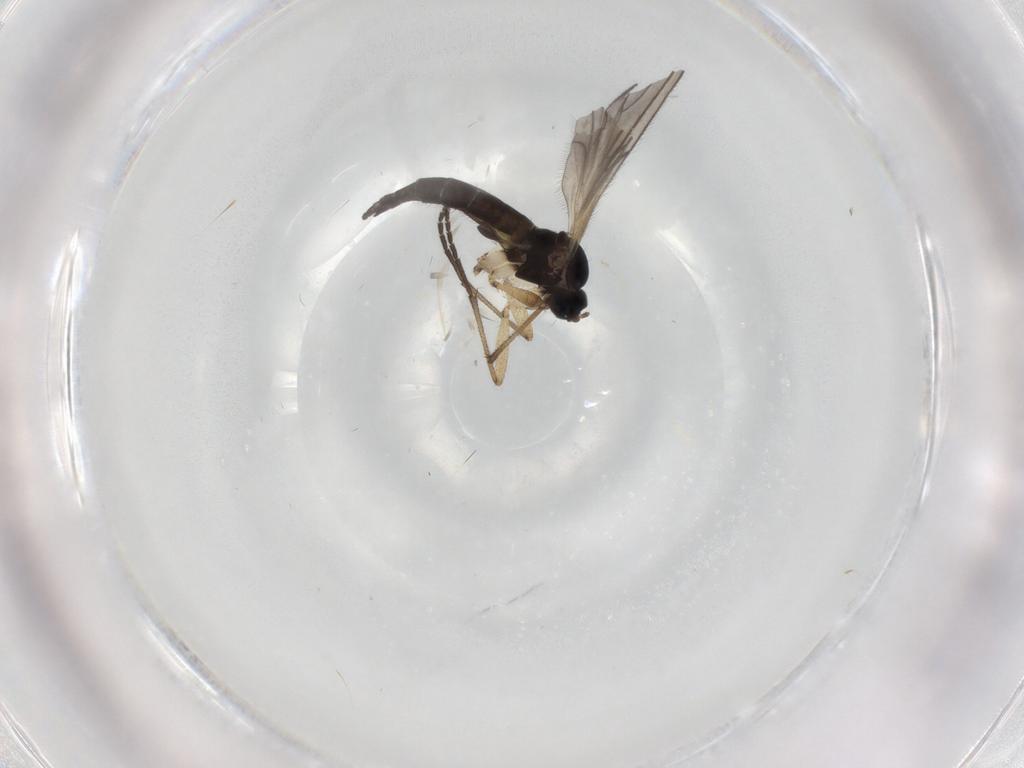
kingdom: Animalia
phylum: Arthropoda
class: Insecta
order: Diptera
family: Sciaridae
